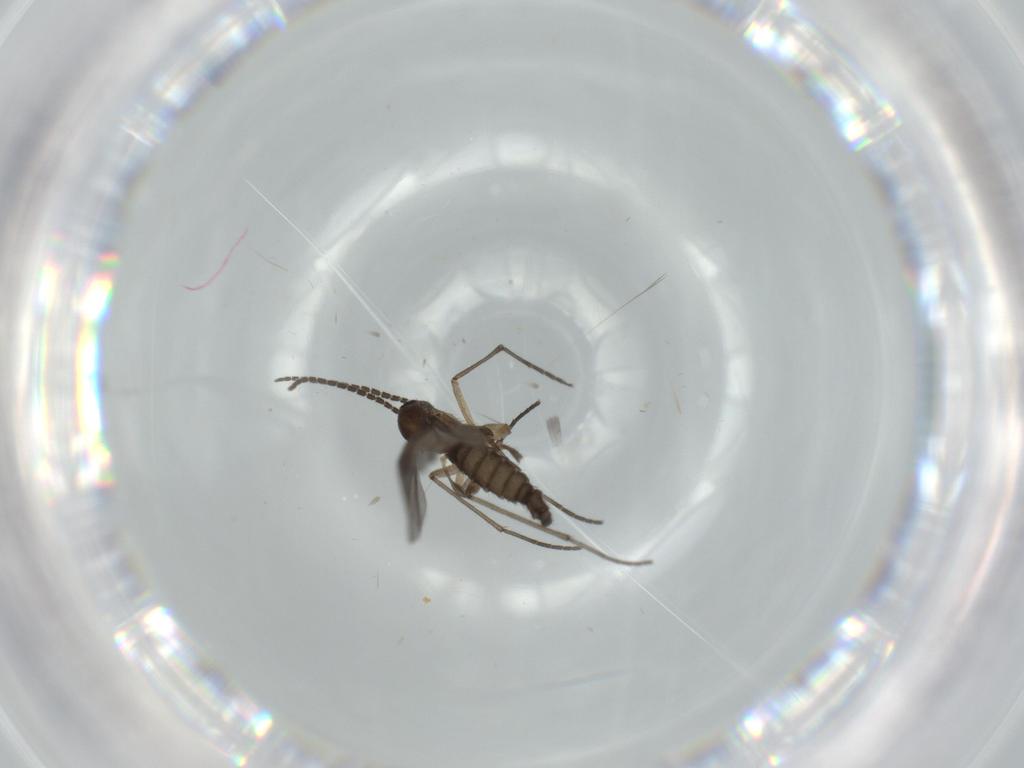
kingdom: Animalia
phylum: Arthropoda
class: Insecta
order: Diptera
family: Sciaridae
